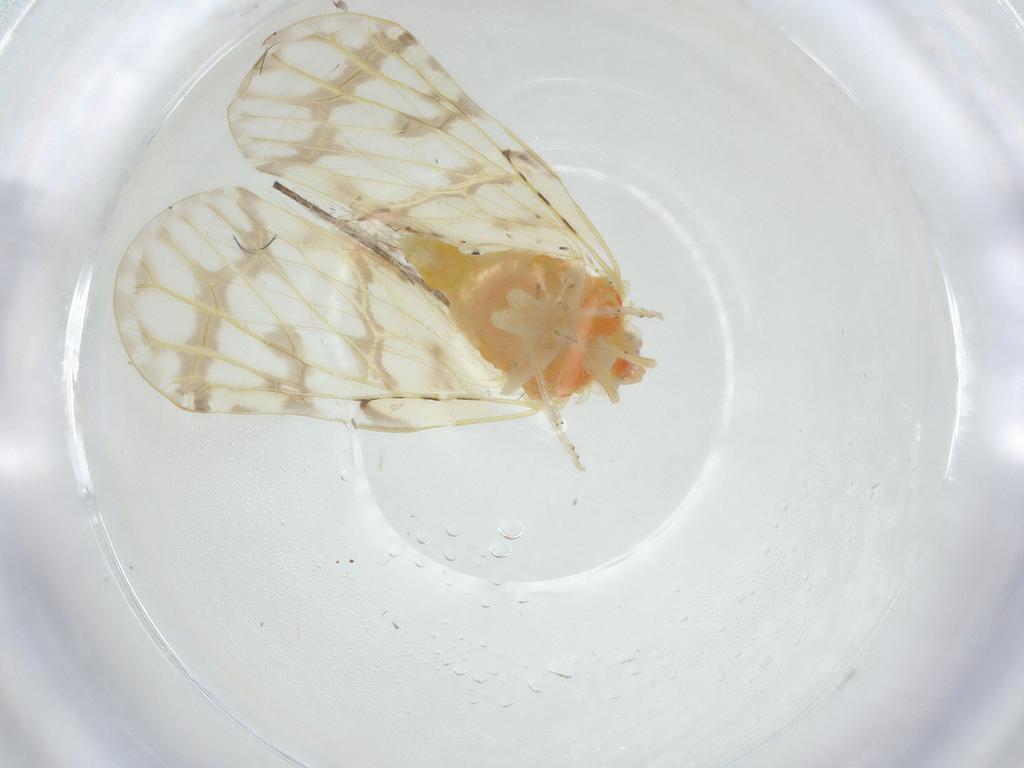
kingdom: Animalia
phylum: Arthropoda
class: Insecta
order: Hemiptera
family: Derbidae
